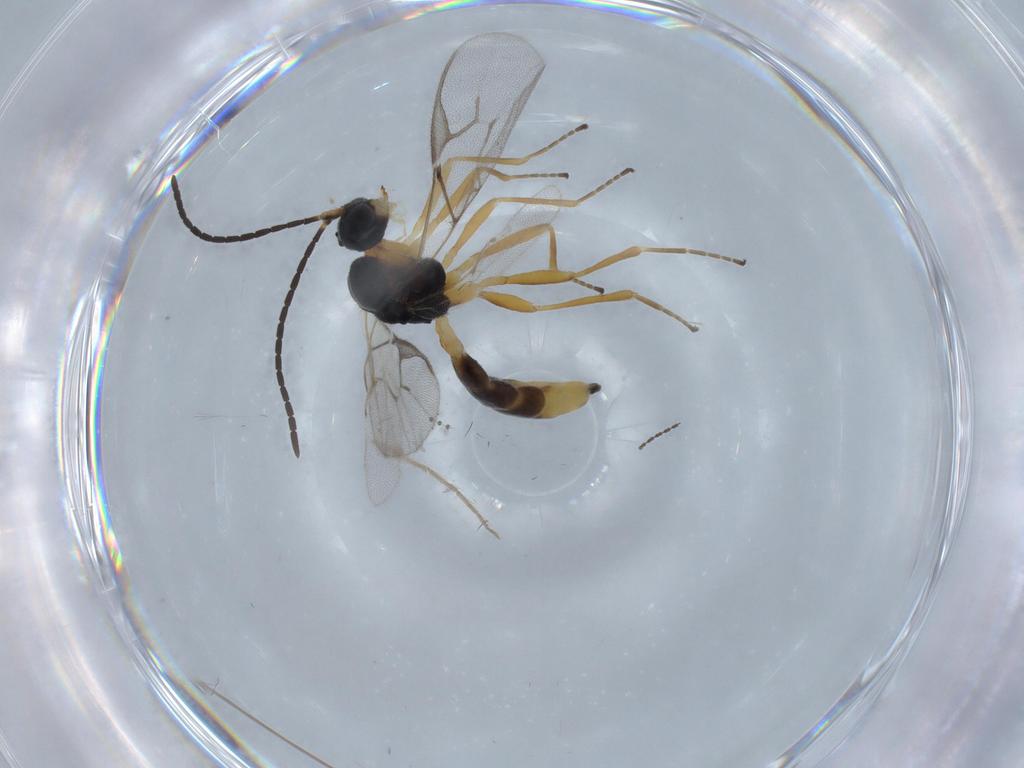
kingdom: Animalia
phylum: Arthropoda
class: Insecta
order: Hymenoptera
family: Braconidae
